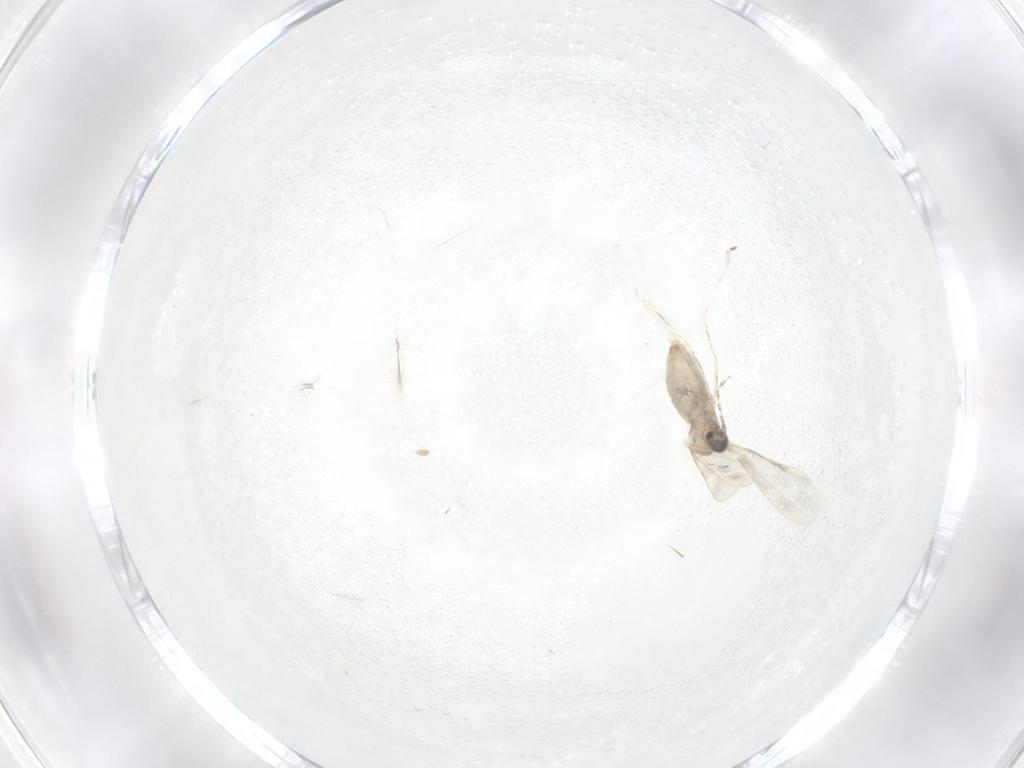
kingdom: Animalia
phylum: Arthropoda
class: Insecta
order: Diptera
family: Cecidomyiidae
